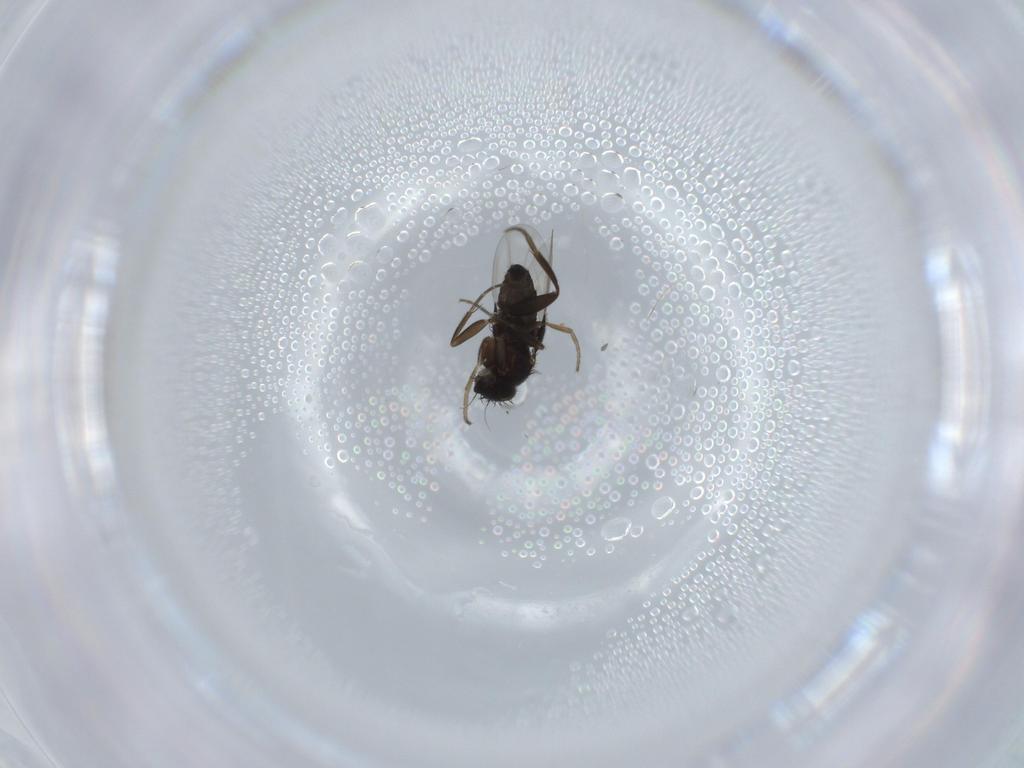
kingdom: Animalia
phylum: Arthropoda
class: Insecta
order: Diptera
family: Phoridae
